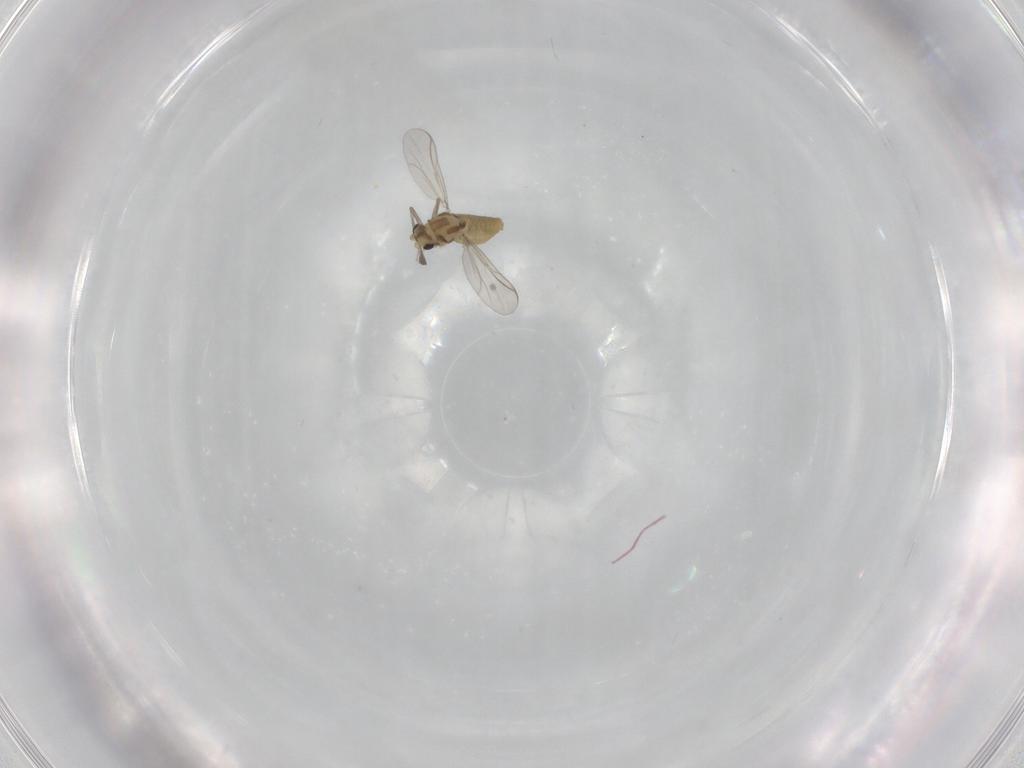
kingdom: Animalia
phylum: Arthropoda
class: Insecta
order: Diptera
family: Chironomidae
